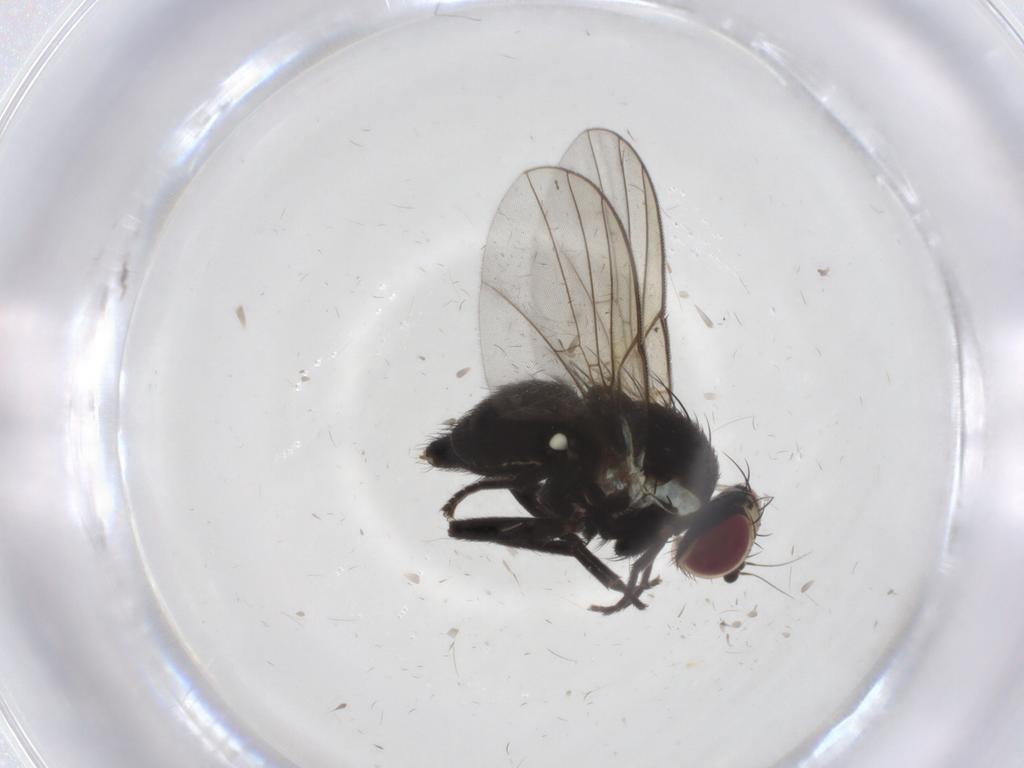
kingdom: Animalia
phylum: Arthropoda
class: Insecta
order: Diptera
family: Agromyzidae
